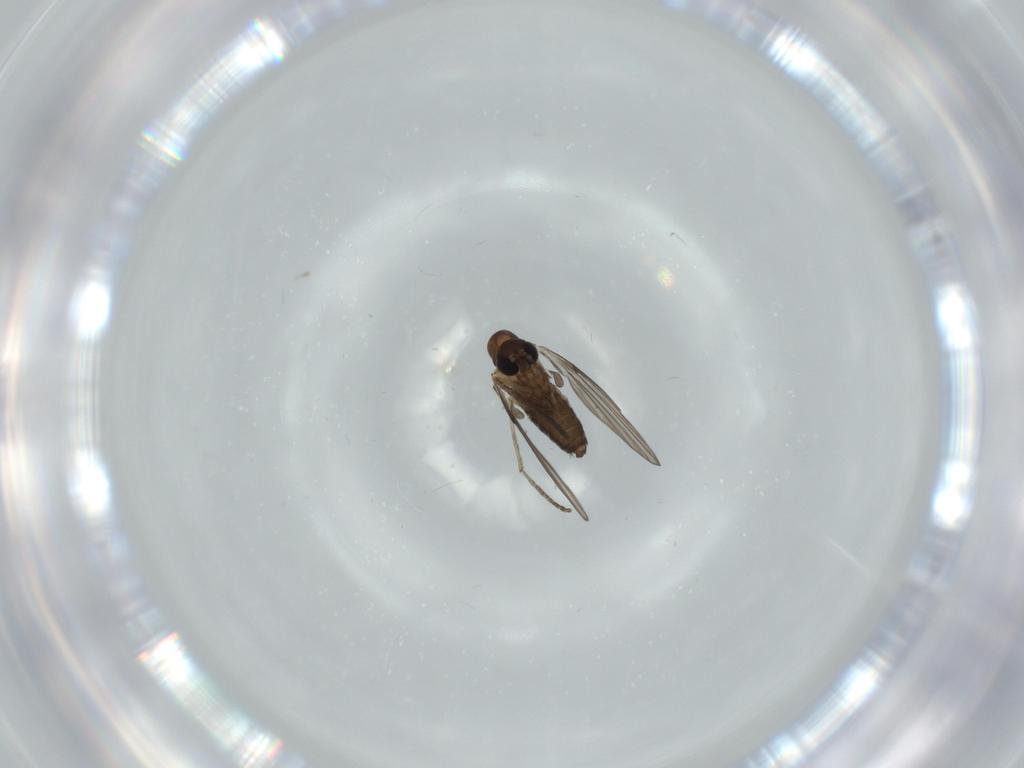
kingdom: Animalia
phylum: Arthropoda
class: Insecta
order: Diptera
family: Psychodidae
